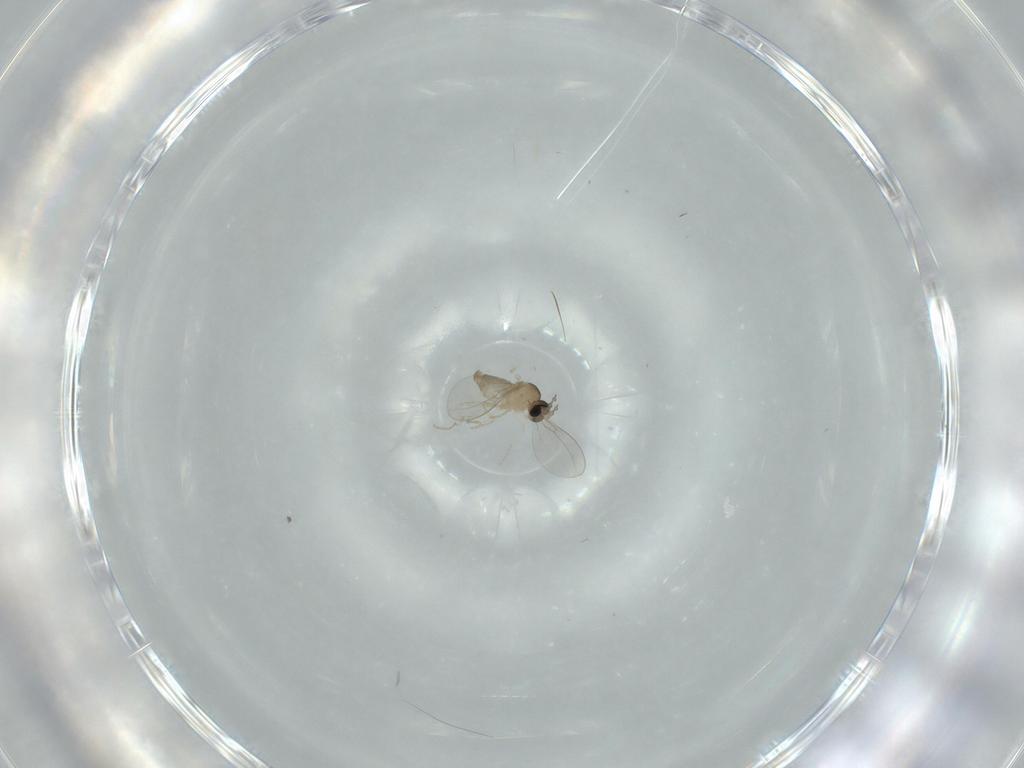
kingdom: Animalia
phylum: Arthropoda
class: Insecta
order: Diptera
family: Cecidomyiidae
